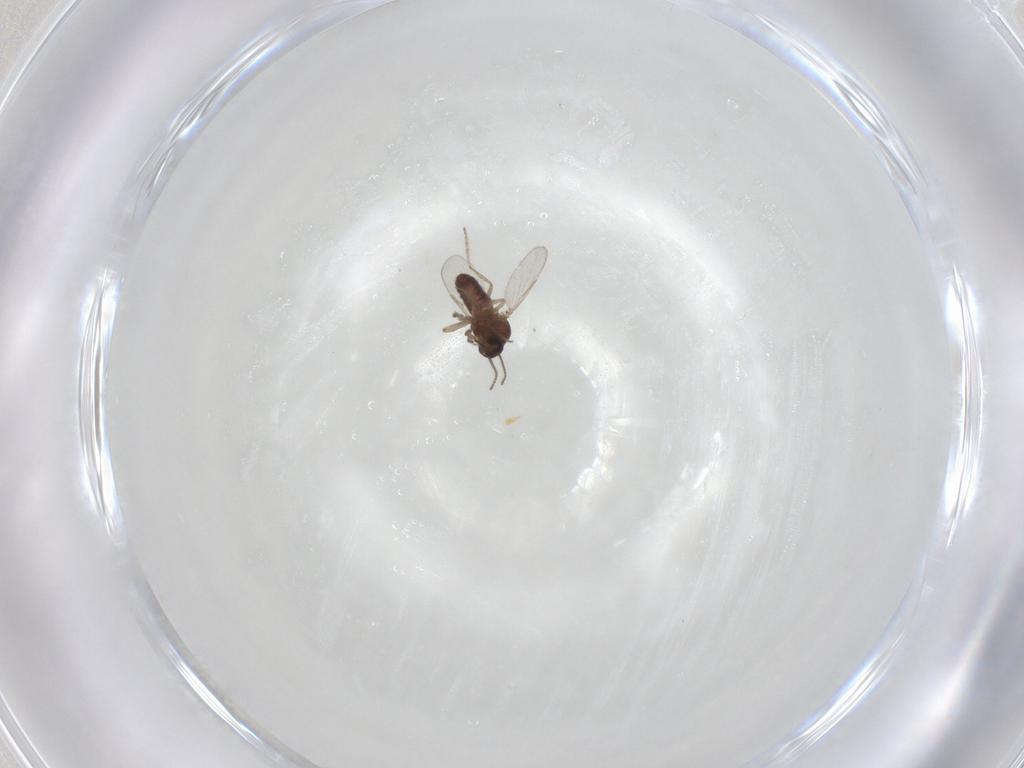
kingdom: Animalia
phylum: Arthropoda
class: Insecta
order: Diptera
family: Ceratopogonidae
